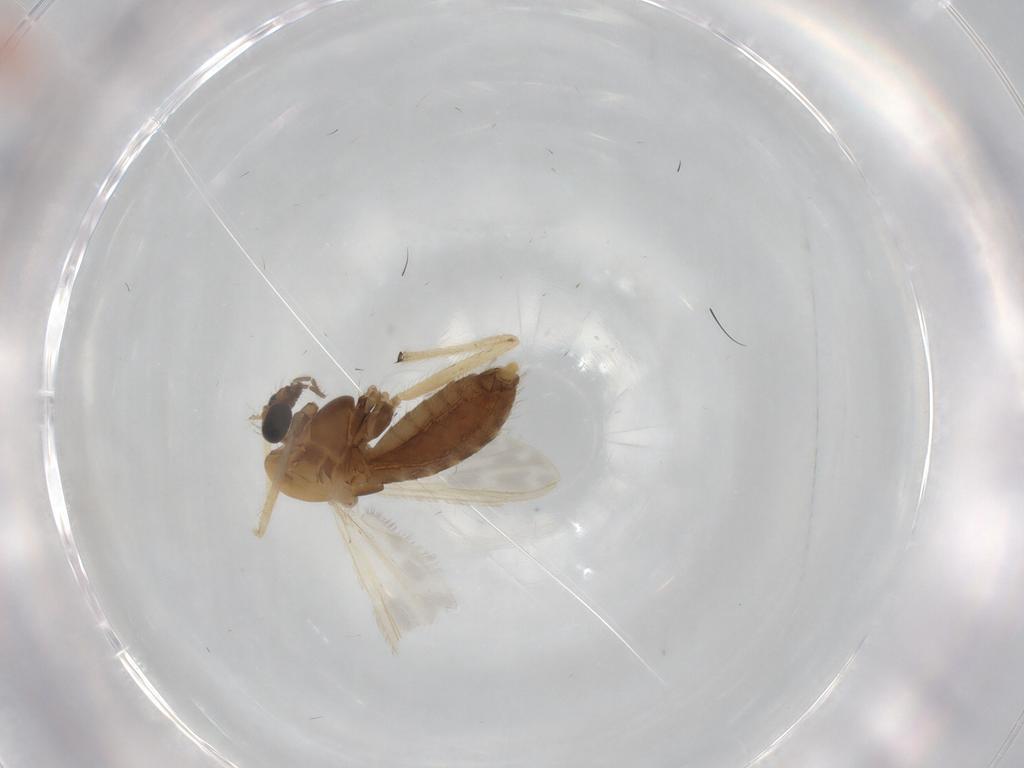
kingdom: Animalia
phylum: Arthropoda
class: Insecta
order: Diptera
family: Chironomidae
